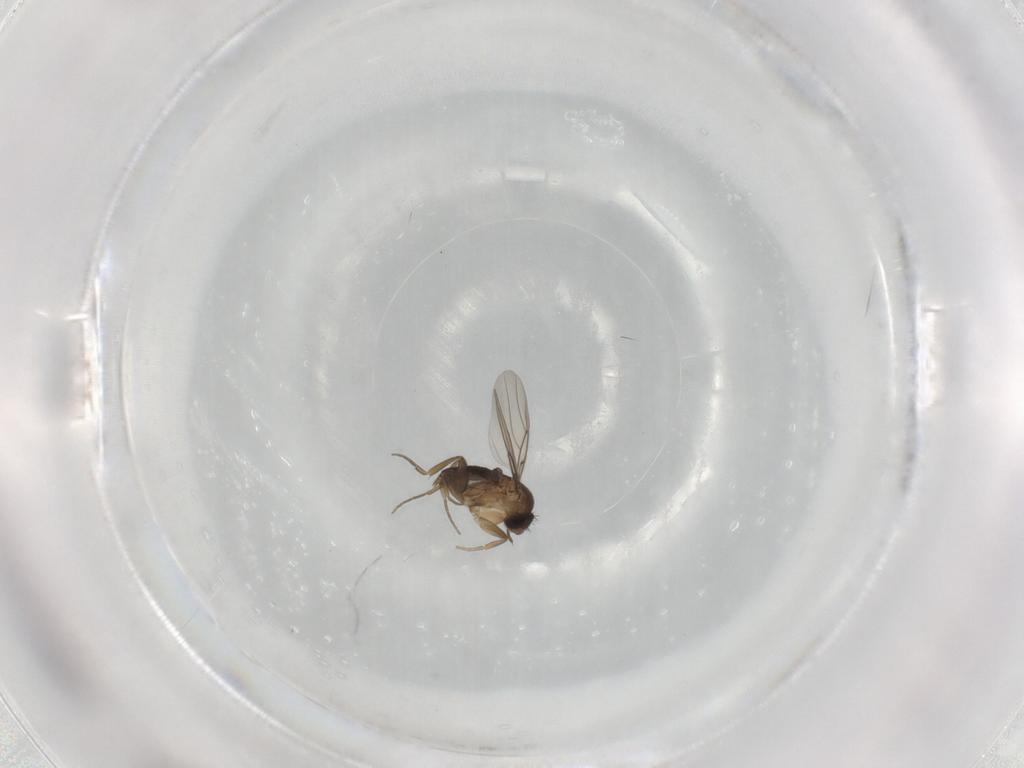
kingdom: Animalia
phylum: Arthropoda
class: Insecta
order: Diptera
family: Phoridae
